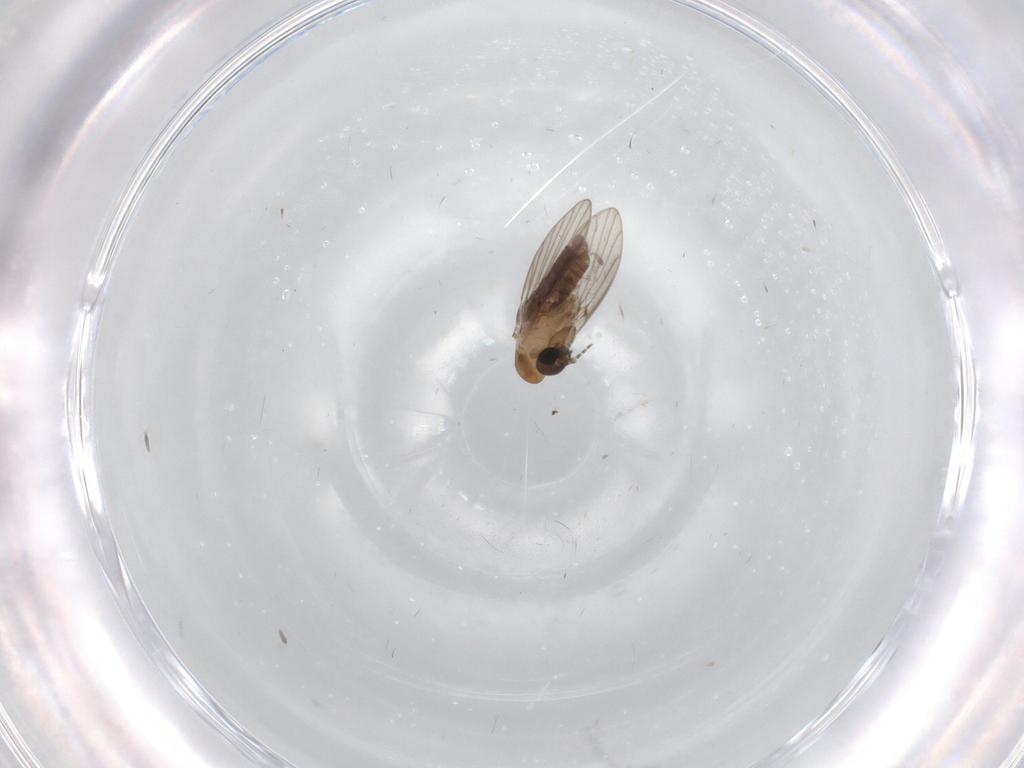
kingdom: Animalia
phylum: Arthropoda
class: Insecta
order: Diptera
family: Psychodidae
